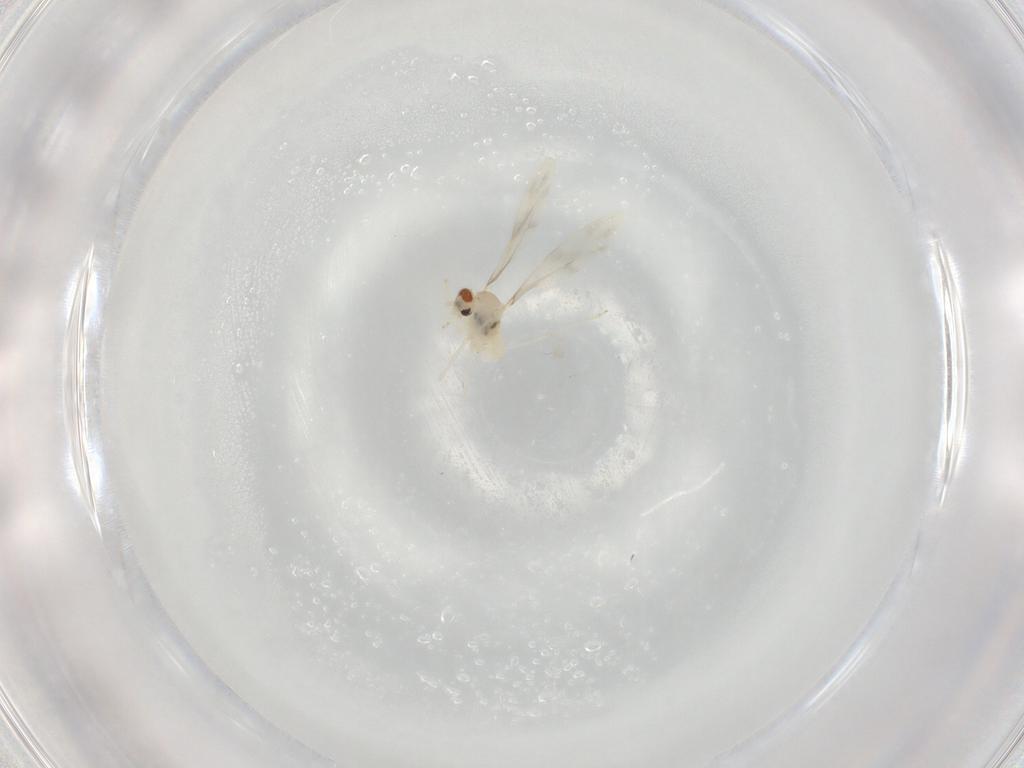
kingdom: Animalia
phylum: Arthropoda
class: Insecta
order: Diptera
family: Cecidomyiidae
